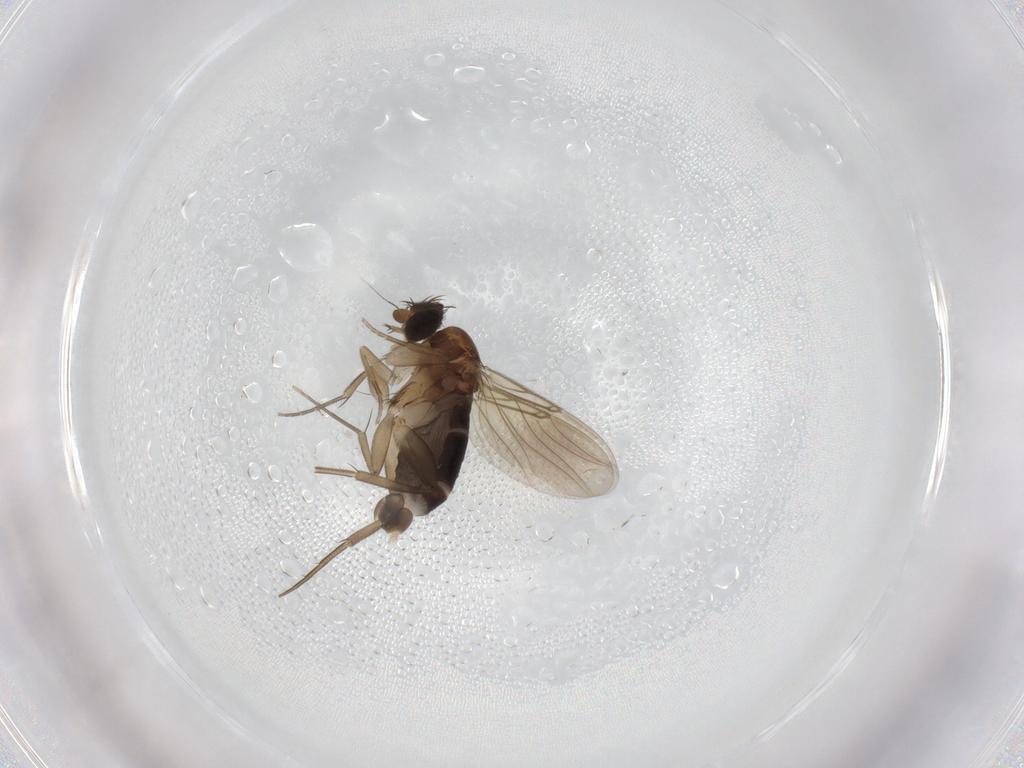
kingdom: Animalia
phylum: Arthropoda
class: Insecta
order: Diptera
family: Phoridae
